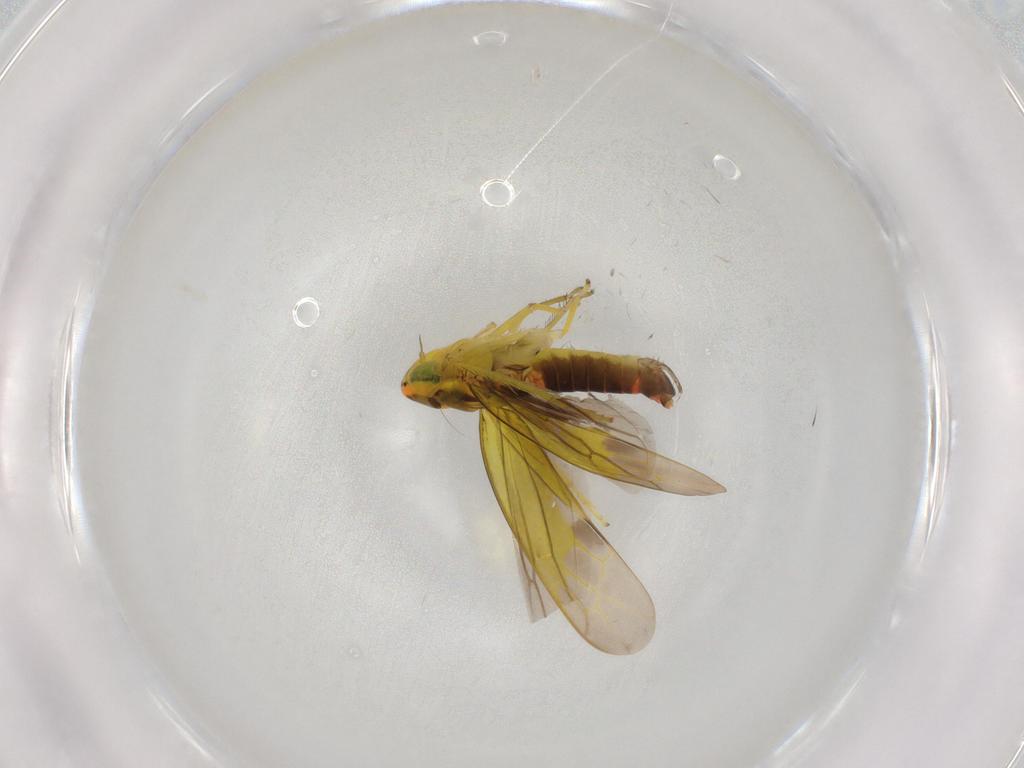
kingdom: Animalia
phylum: Arthropoda
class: Insecta
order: Hemiptera
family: Cicadellidae
